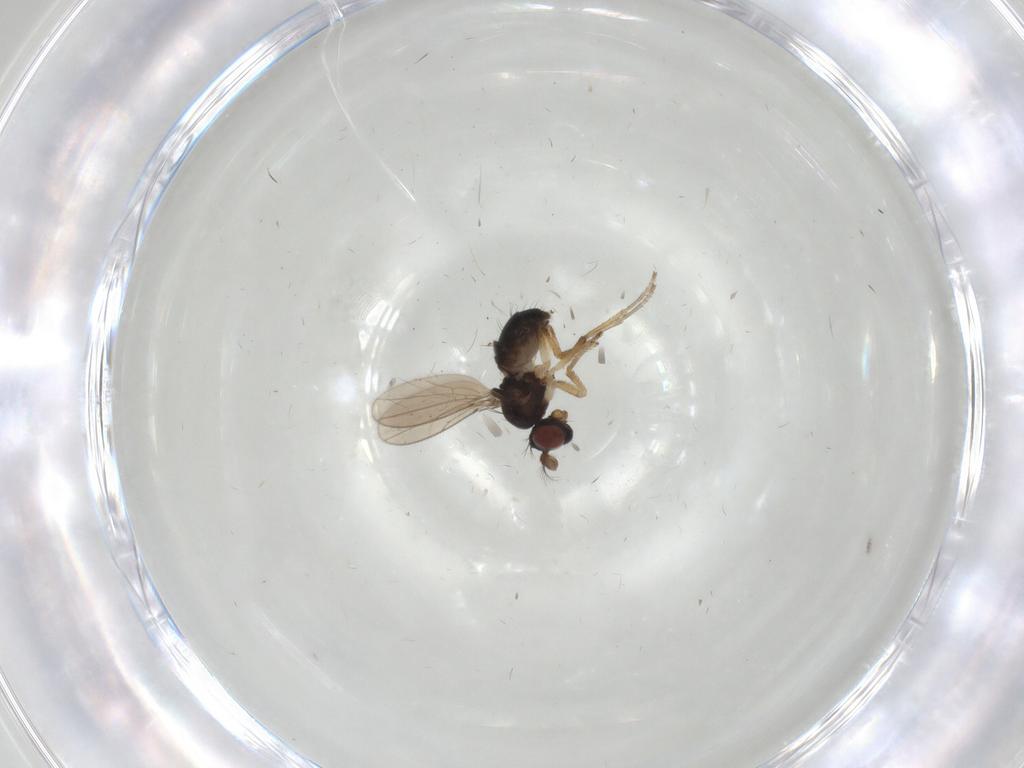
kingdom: Animalia
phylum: Arthropoda
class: Insecta
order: Diptera
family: Ephydridae
